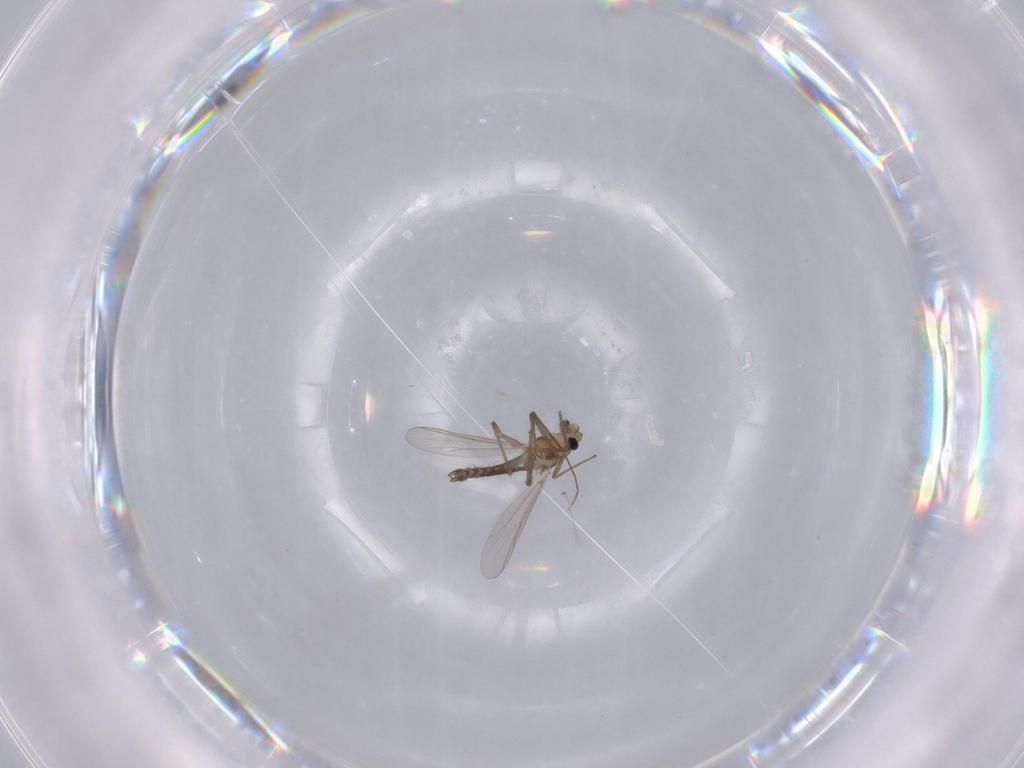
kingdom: Animalia
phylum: Arthropoda
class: Insecta
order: Diptera
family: Chironomidae
